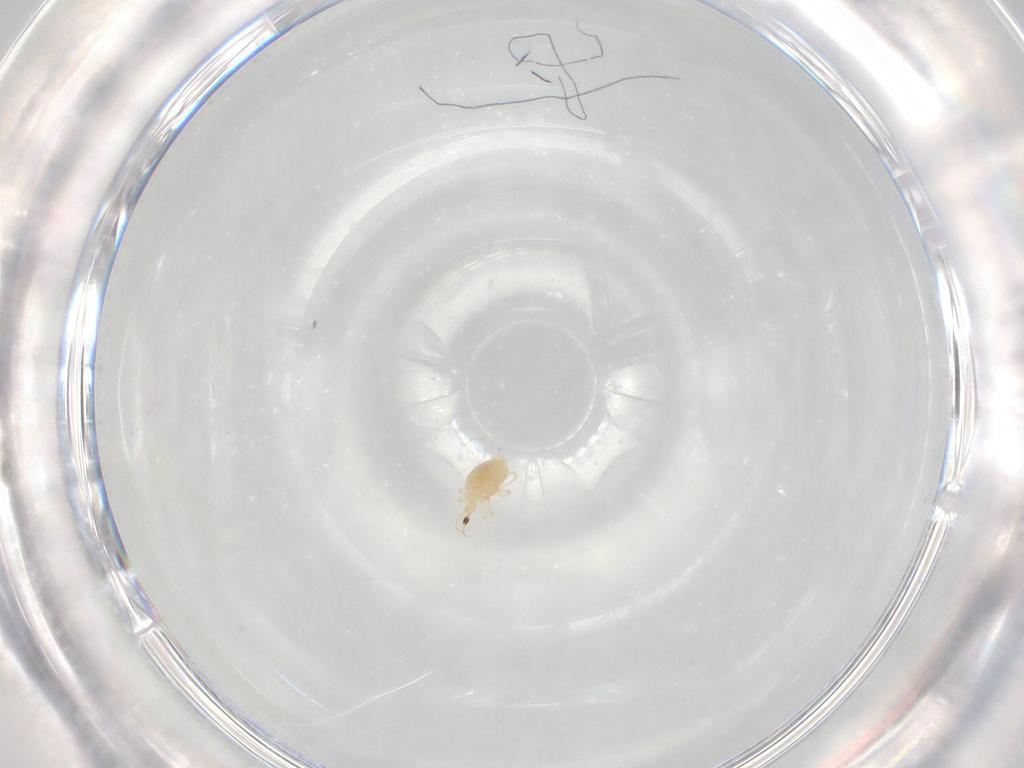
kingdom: Animalia
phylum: Arthropoda
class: Arachnida
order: Trombidiformes
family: Cunaxidae
